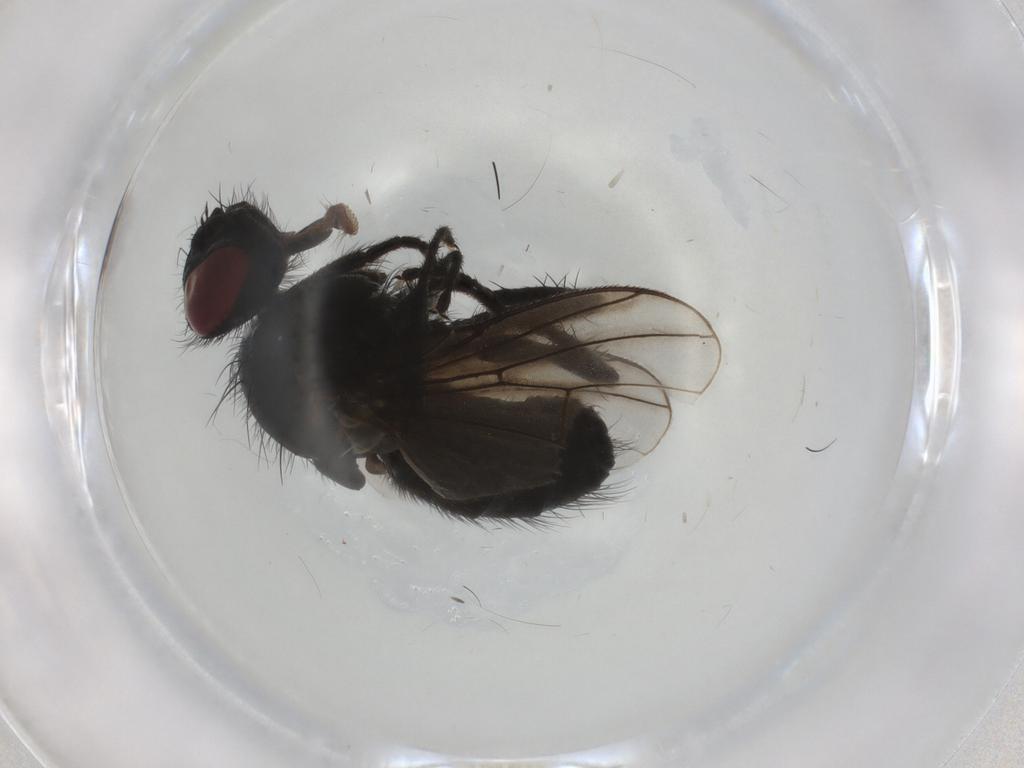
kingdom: Animalia
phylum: Arthropoda
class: Insecta
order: Diptera
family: Muscidae
